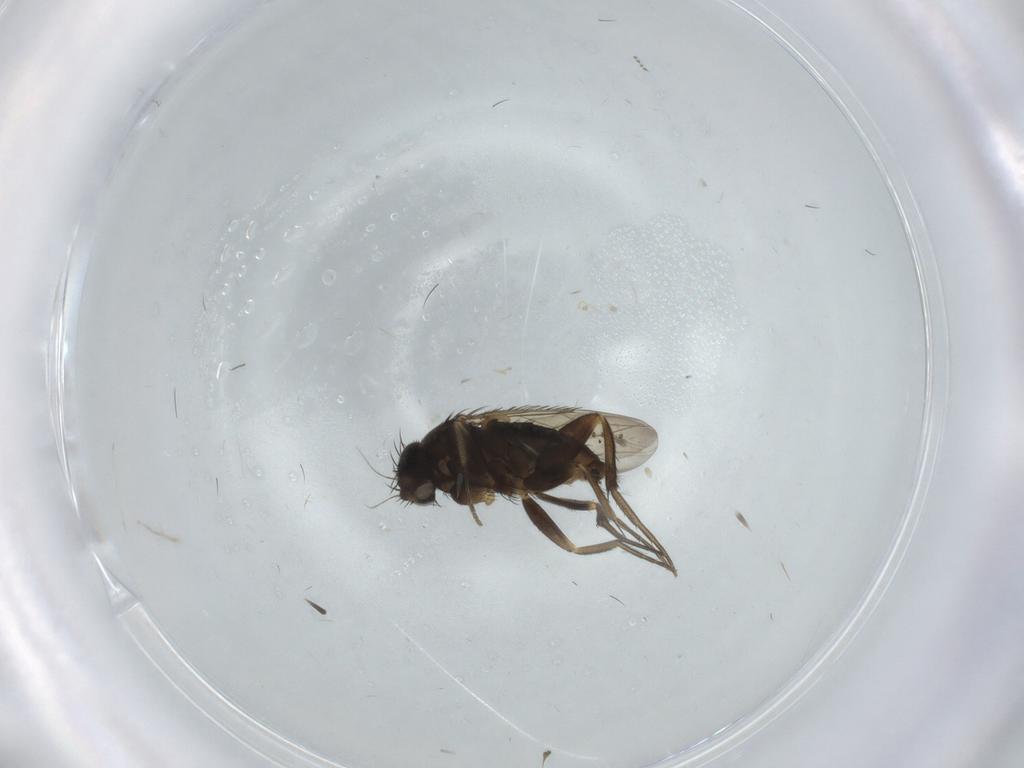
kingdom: Animalia
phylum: Arthropoda
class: Insecta
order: Diptera
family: Phoridae
